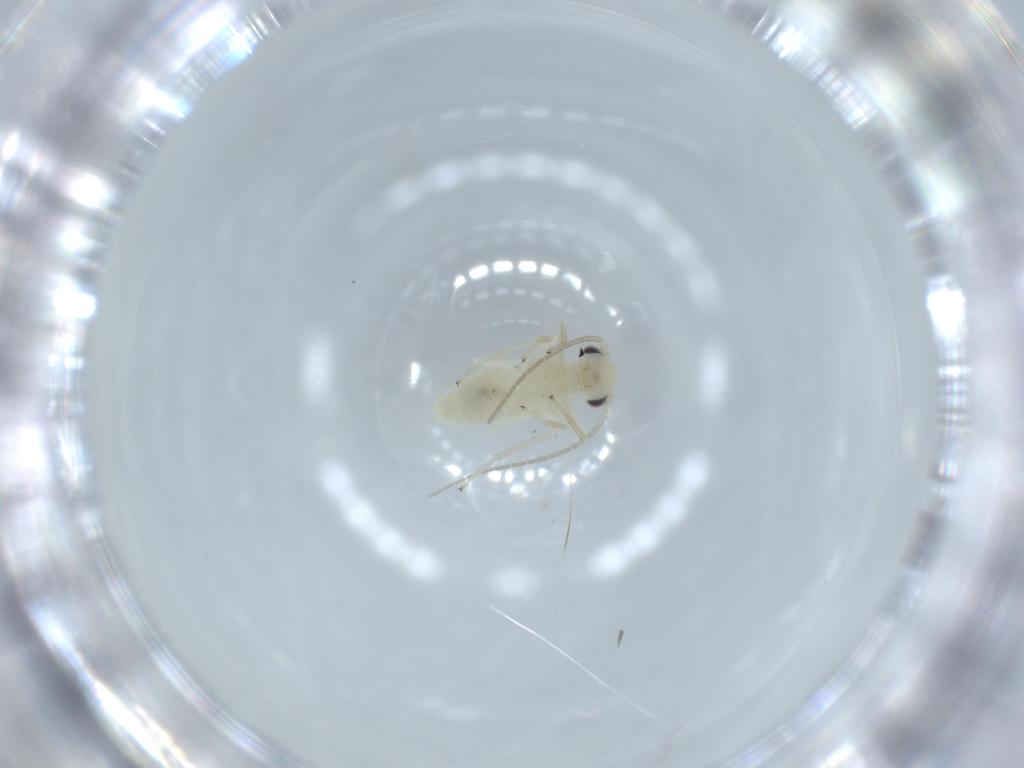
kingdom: Animalia
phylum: Arthropoda
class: Insecta
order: Psocodea
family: Caeciliusidae
